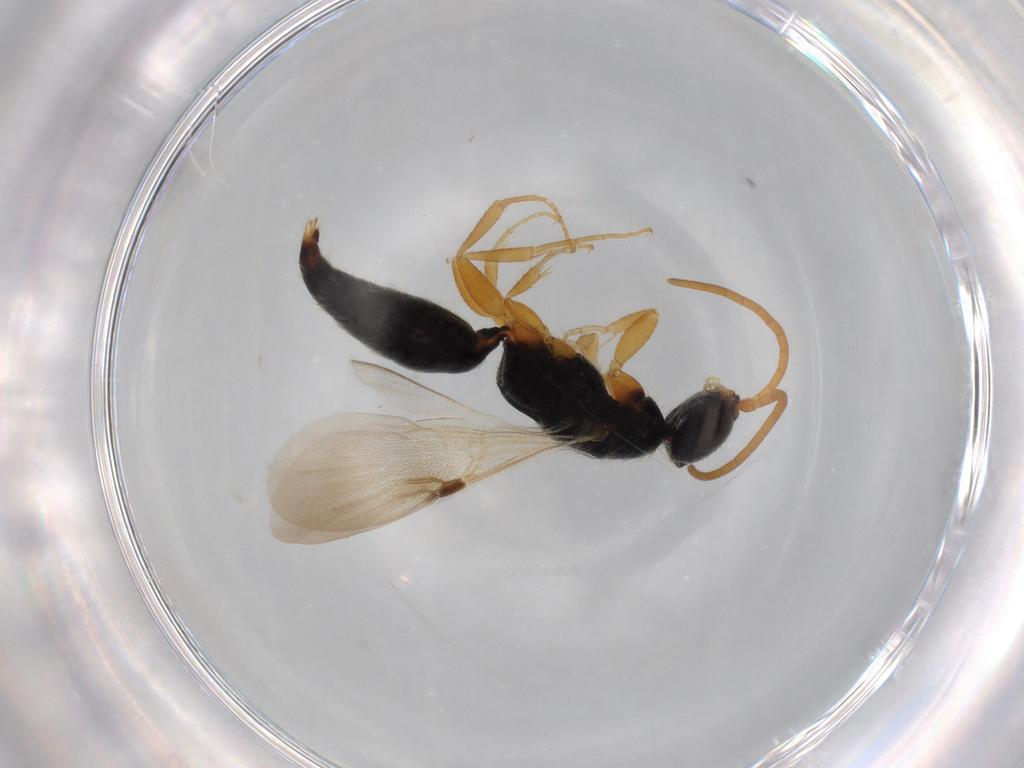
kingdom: Animalia
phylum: Arthropoda
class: Insecta
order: Hymenoptera
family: Bethylidae
